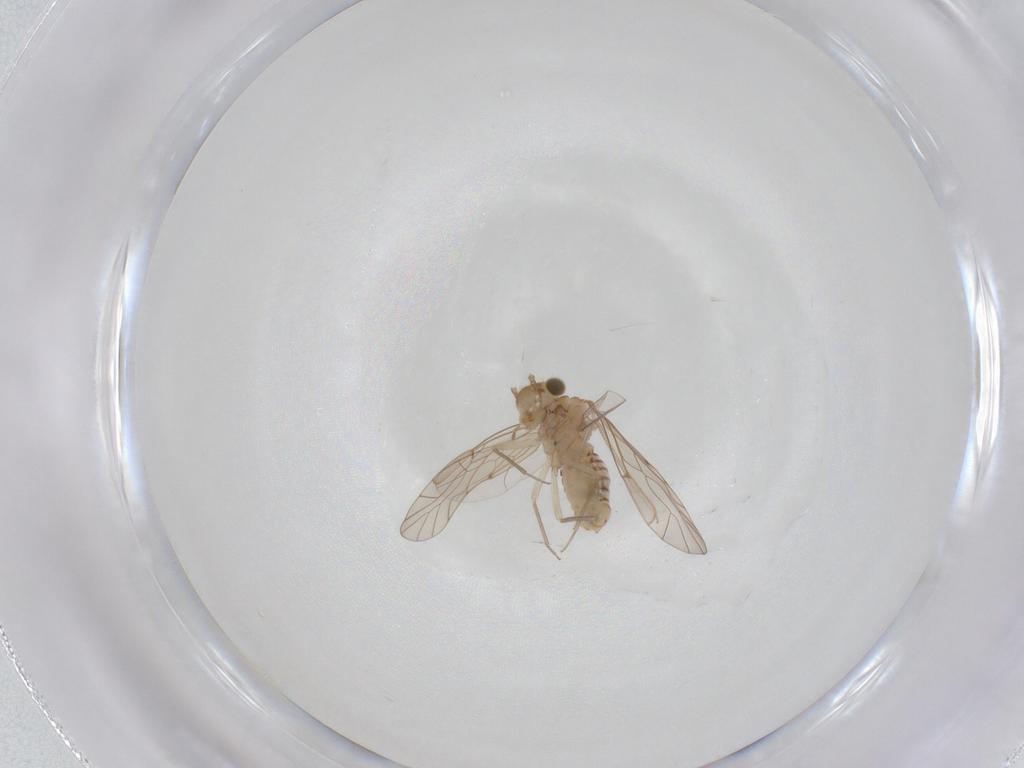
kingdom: Animalia
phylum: Arthropoda
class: Insecta
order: Psocodea
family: Lachesillidae
